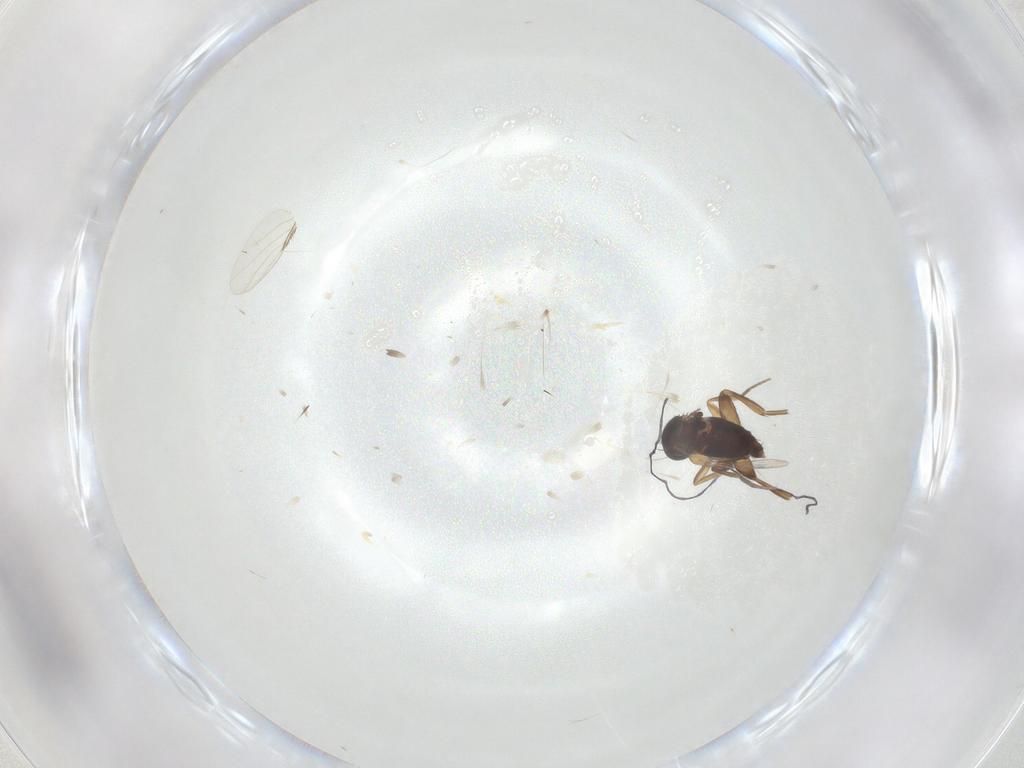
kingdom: Animalia
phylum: Arthropoda
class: Insecta
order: Diptera
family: Phoridae
